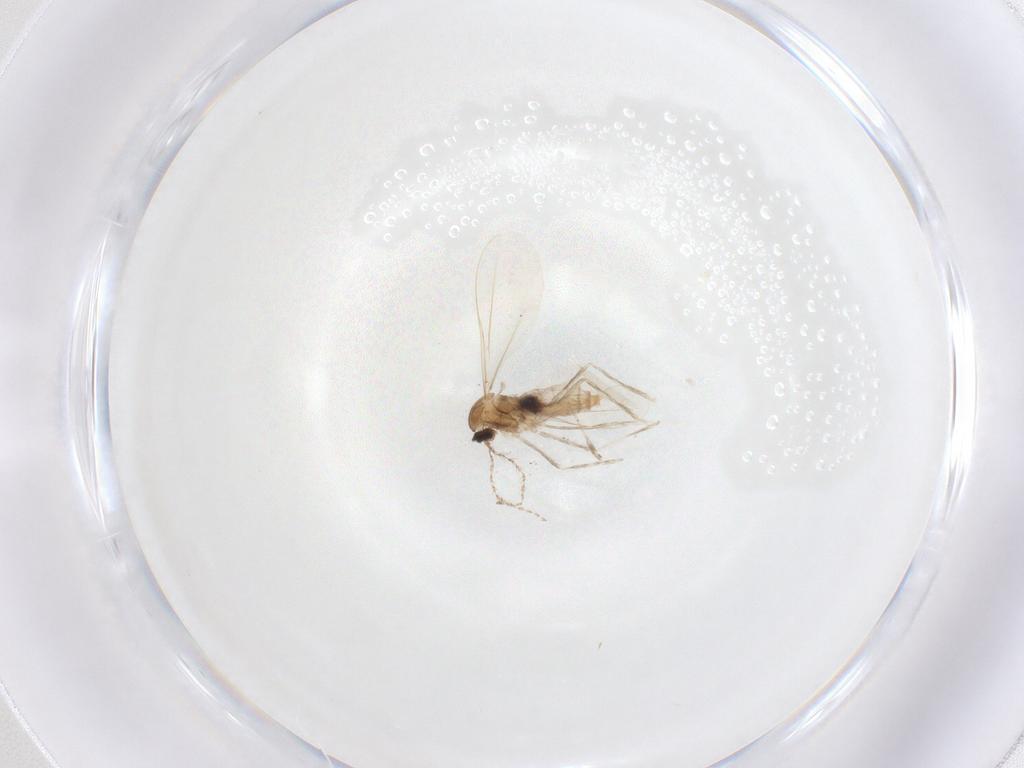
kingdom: Animalia
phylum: Arthropoda
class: Insecta
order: Diptera
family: Cecidomyiidae
